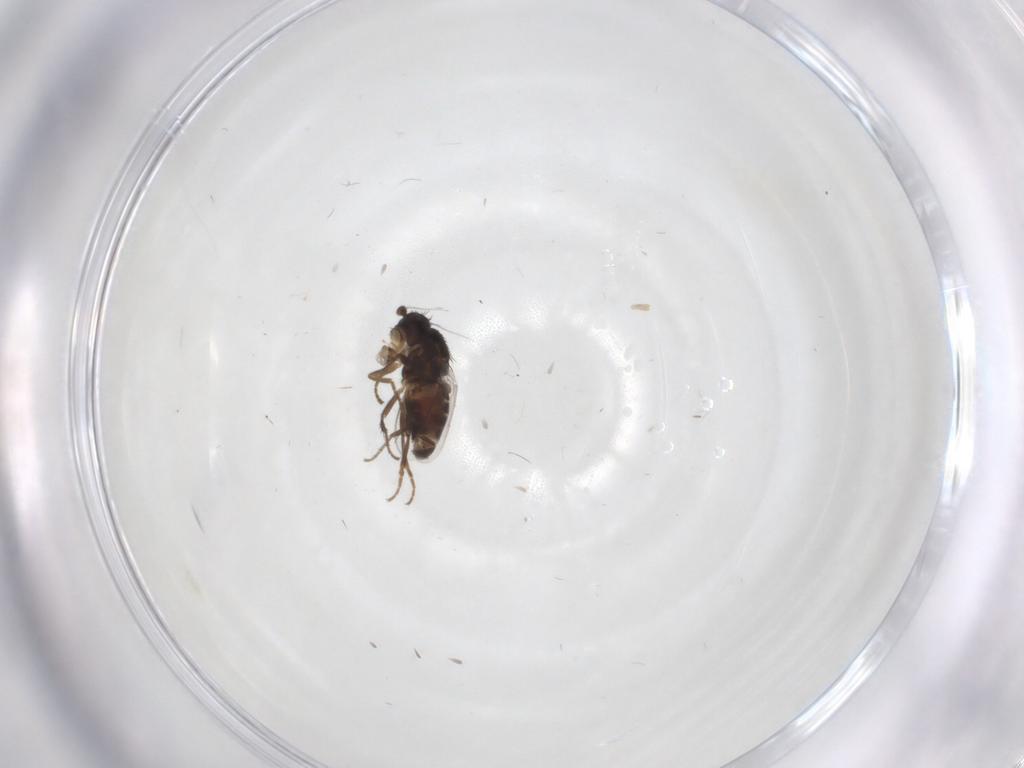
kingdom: Animalia
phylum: Arthropoda
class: Insecta
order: Diptera
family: Sphaeroceridae
